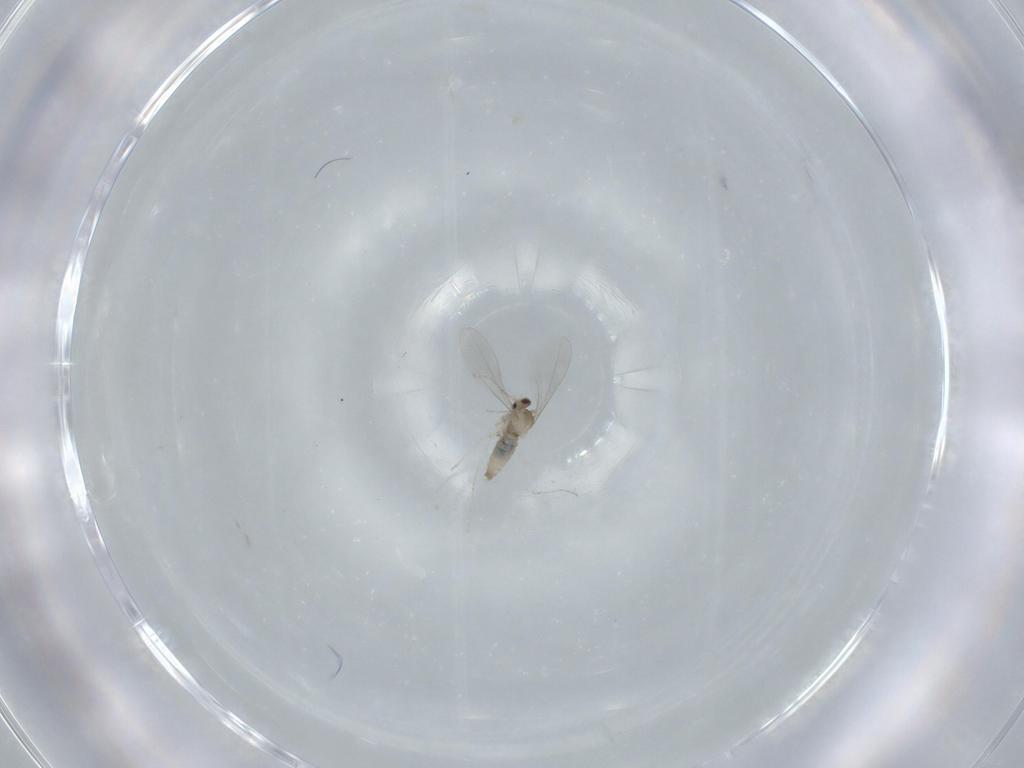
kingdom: Animalia
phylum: Arthropoda
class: Insecta
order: Diptera
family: Cecidomyiidae
